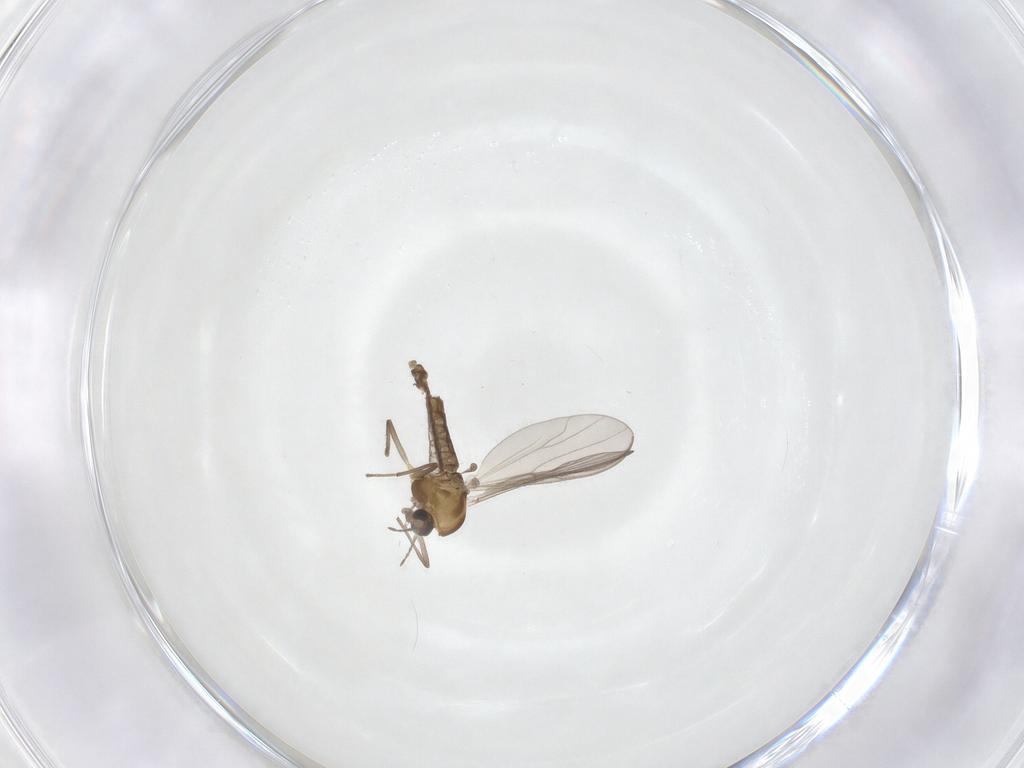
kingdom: Animalia
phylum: Arthropoda
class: Insecta
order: Diptera
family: Chironomidae
